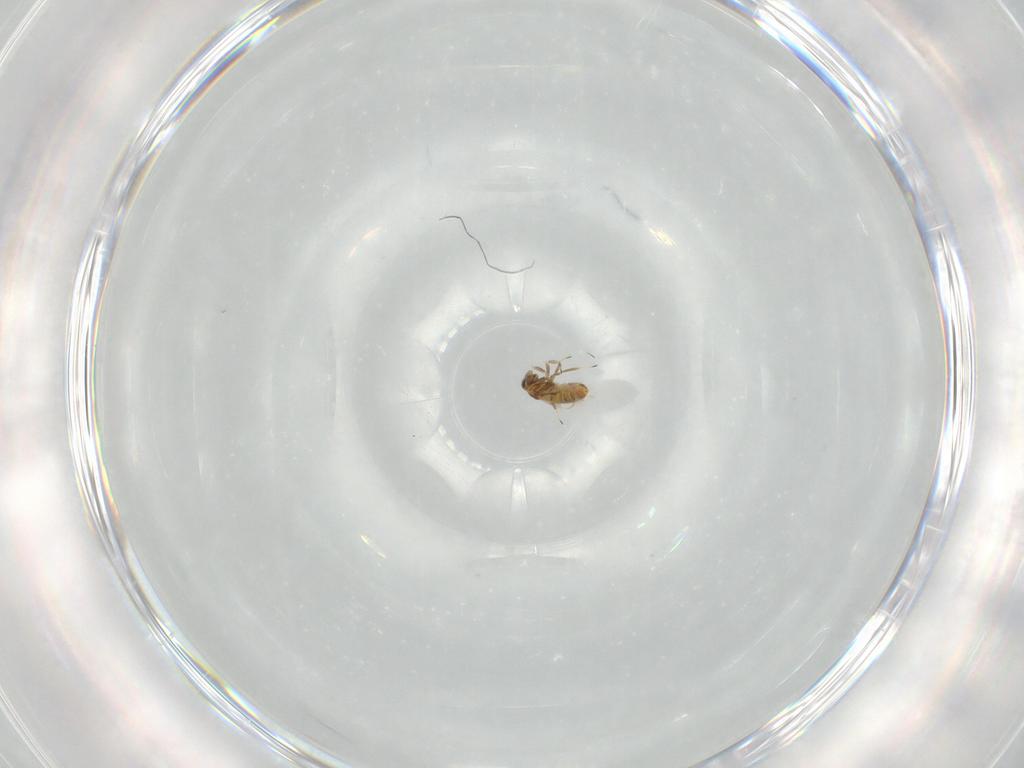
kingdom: Animalia
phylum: Arthropoda
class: Insecta
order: Hymenoptera
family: Trichogrammatidae
